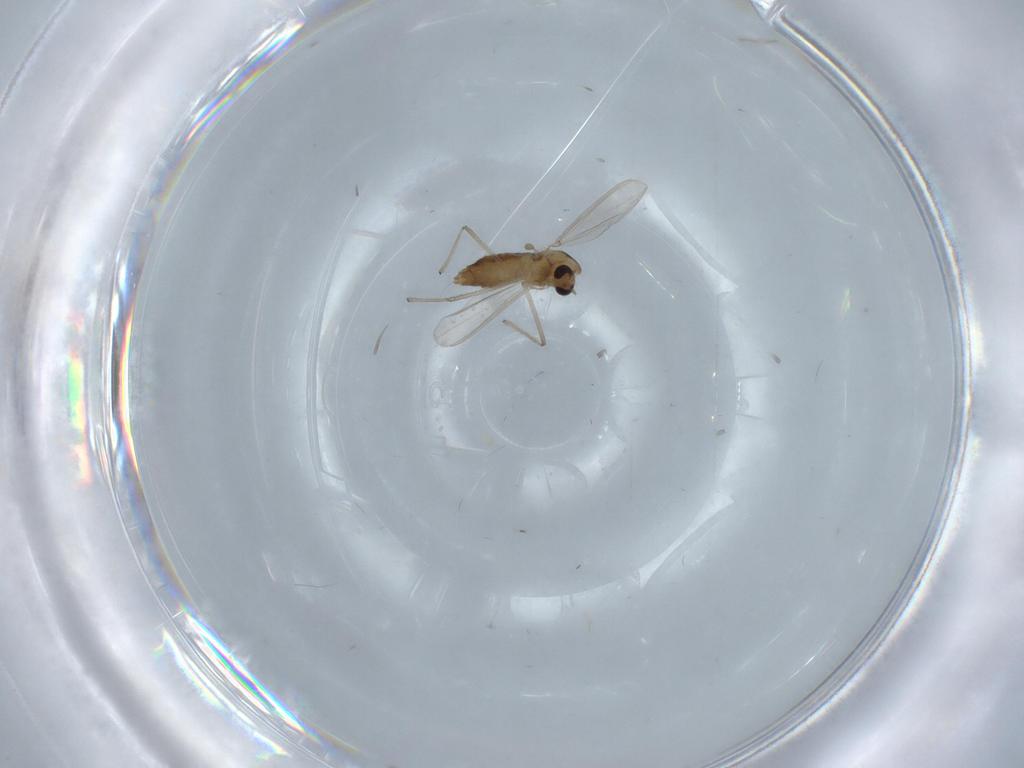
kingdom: Animalia
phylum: Arthropoda
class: Insecta
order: Diptera
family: Chironomidae
